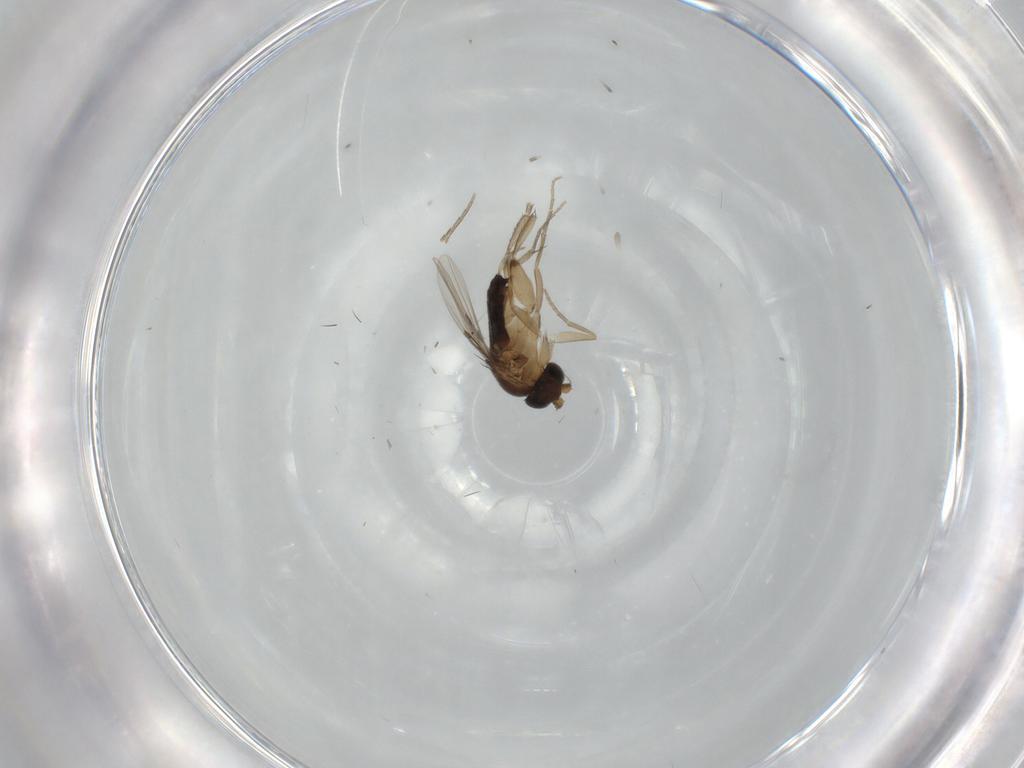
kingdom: Animalia
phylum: Arthropoda
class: Insecta
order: Diptera
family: Phoridae
